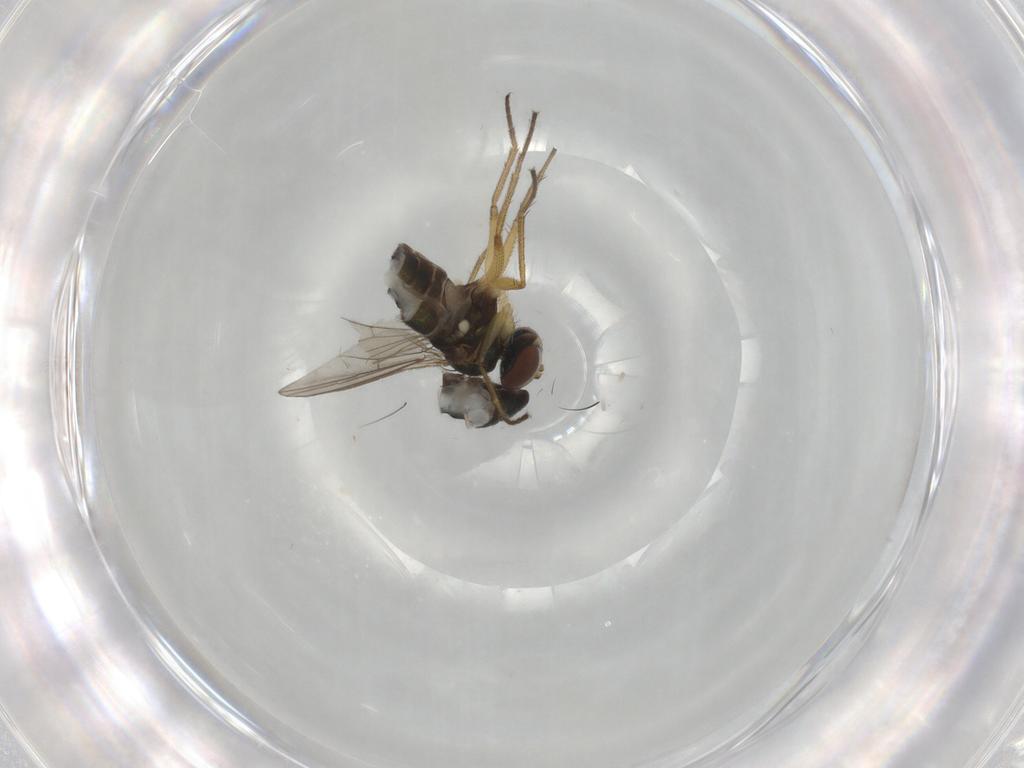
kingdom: Animalia
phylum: Arthropoda
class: Insecta
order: Diptera
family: Dolichopodidae
